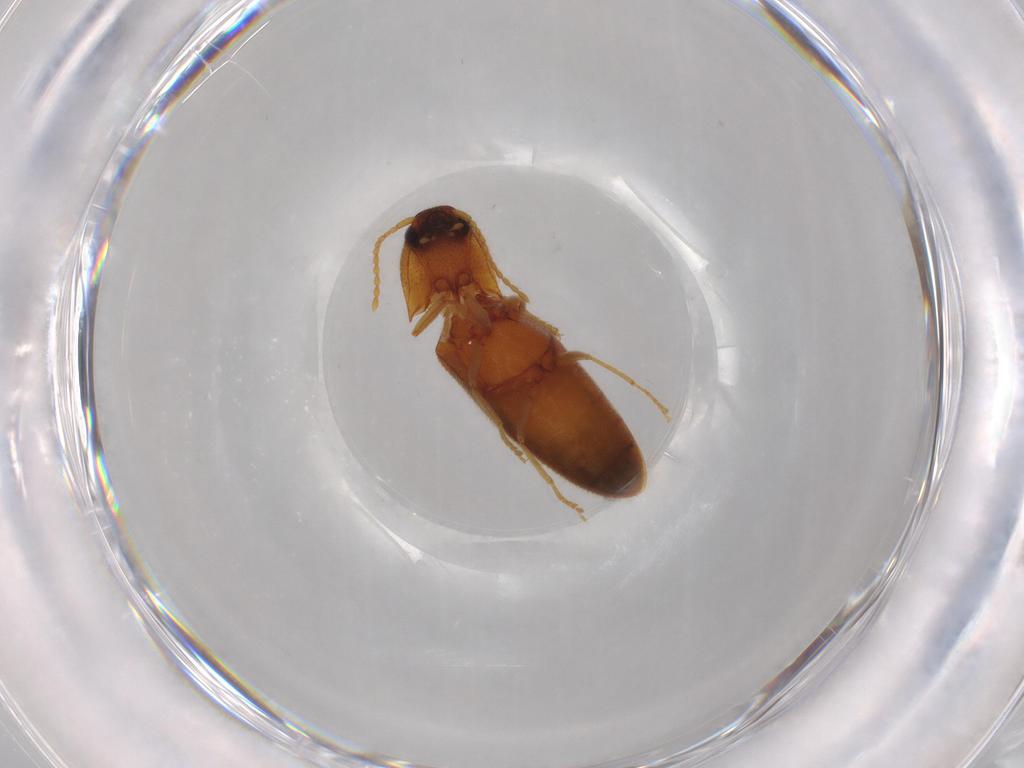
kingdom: Animalia
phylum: Arthropoda
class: Insecta
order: Coleoptera
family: Elateridae
